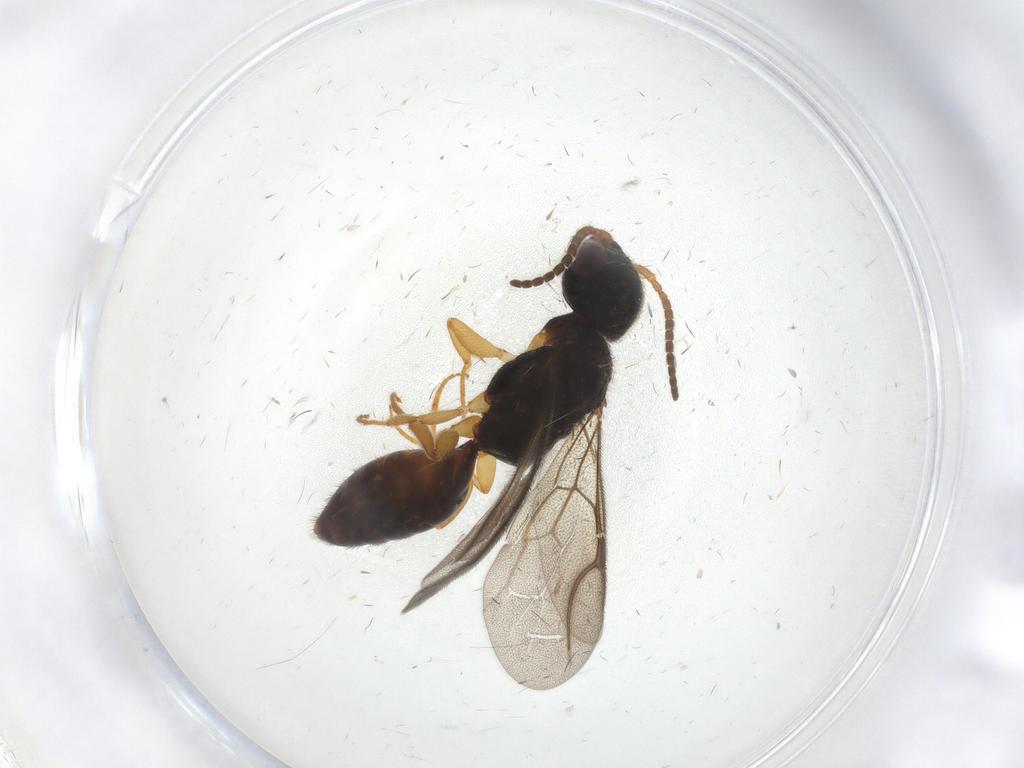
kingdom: Animalia
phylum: Arthropoda
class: Insecta
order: Hymenoptera
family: Bethylidae
